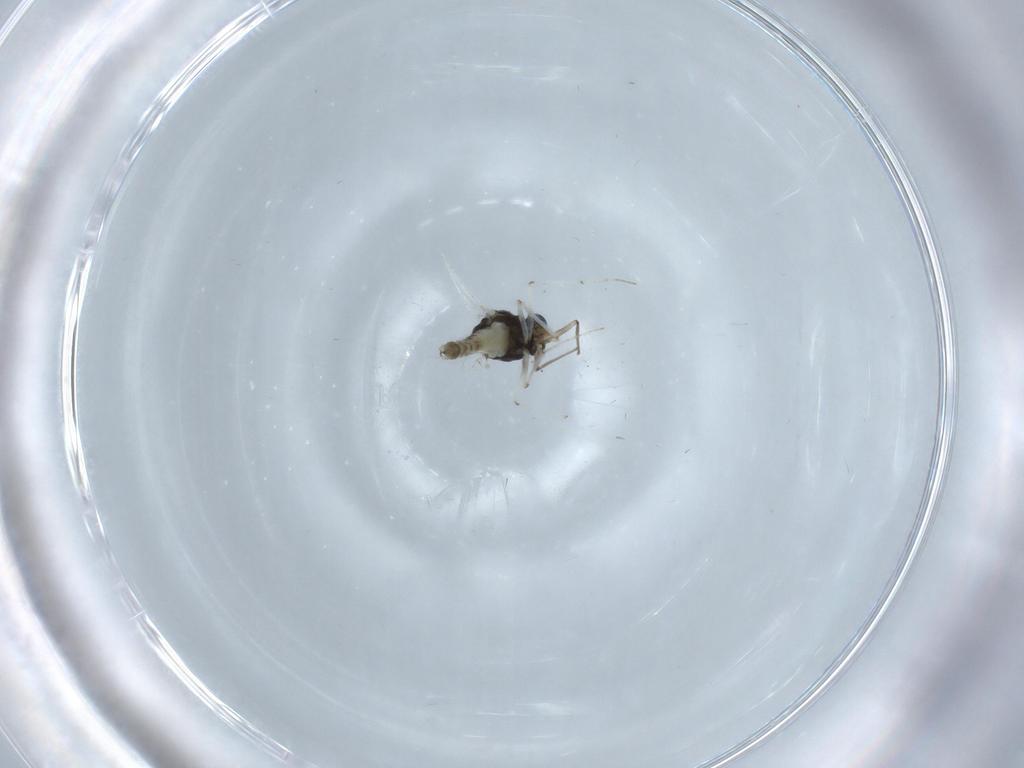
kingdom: Animalia
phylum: Arthropoda
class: Insecta
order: Diptera
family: Chironomidae
